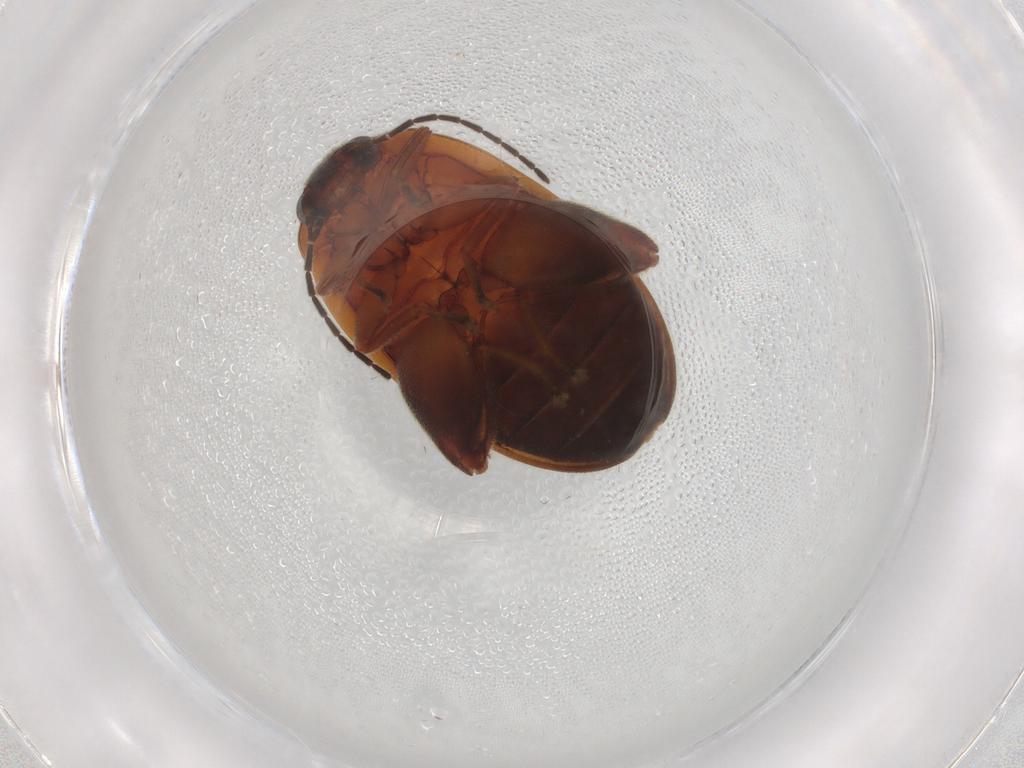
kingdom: Animalia
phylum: Arthropoda
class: Insecta
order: Coleoptera
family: Scirtidae
